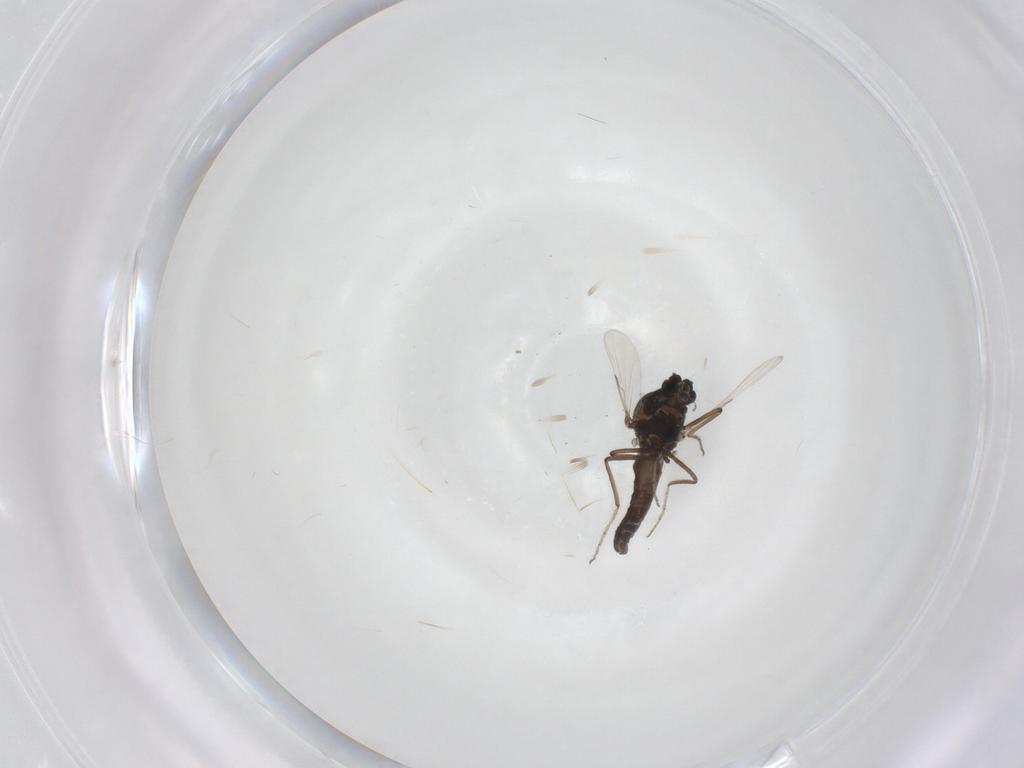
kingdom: Animalia
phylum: Arthropoda
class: Insecta
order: Diptera
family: Ceratopogonidae
